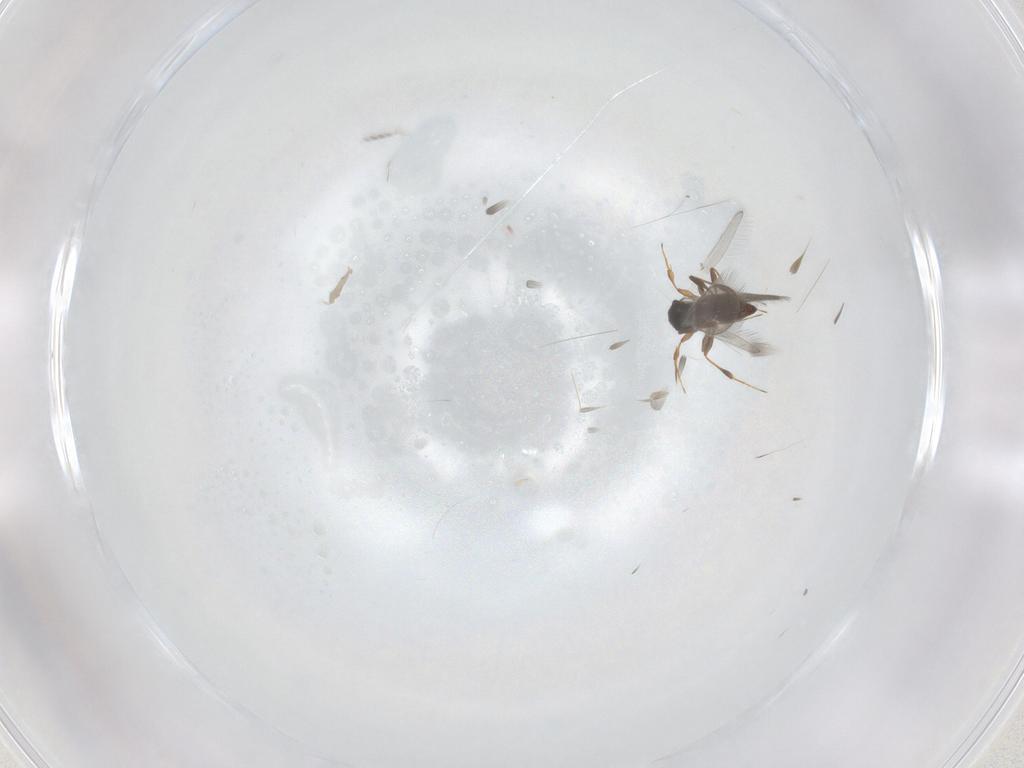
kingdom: Animalia
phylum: Arthropoda
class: Insecta
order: Hymenoptera
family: Platygastridae
